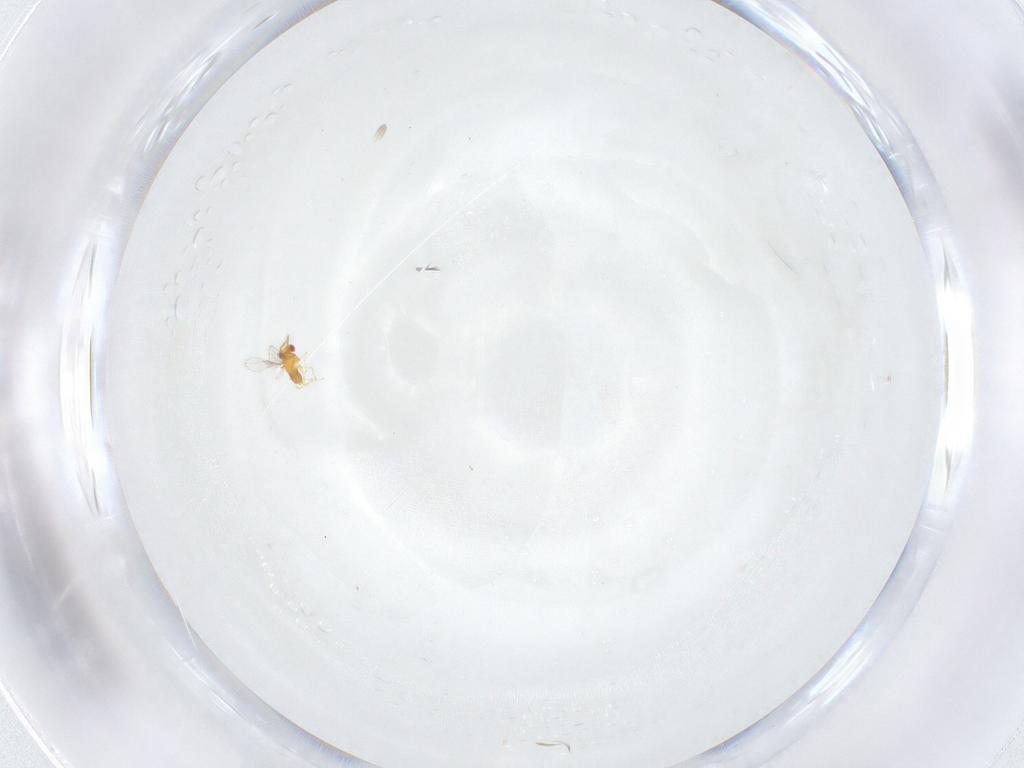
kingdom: Animalia
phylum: Arthropoda
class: Insecta
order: Hymenoptera
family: Trichogrammatidae
